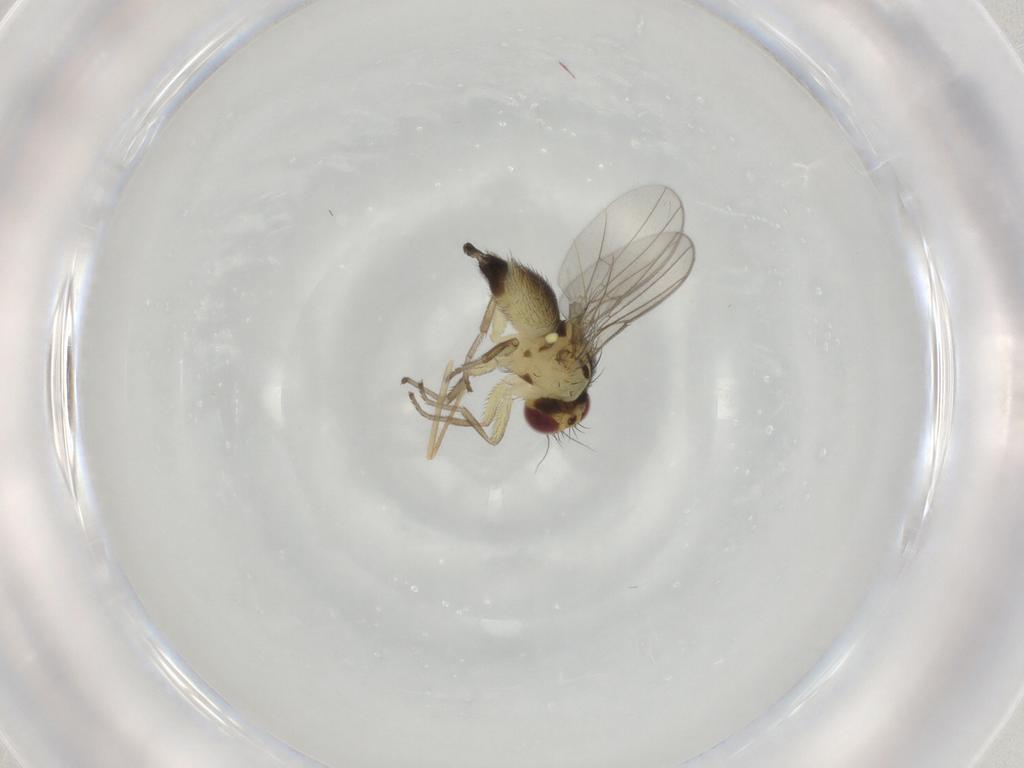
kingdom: Animalia
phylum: Arthropoda
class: Insecta
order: Diptera
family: Agromyzidae
